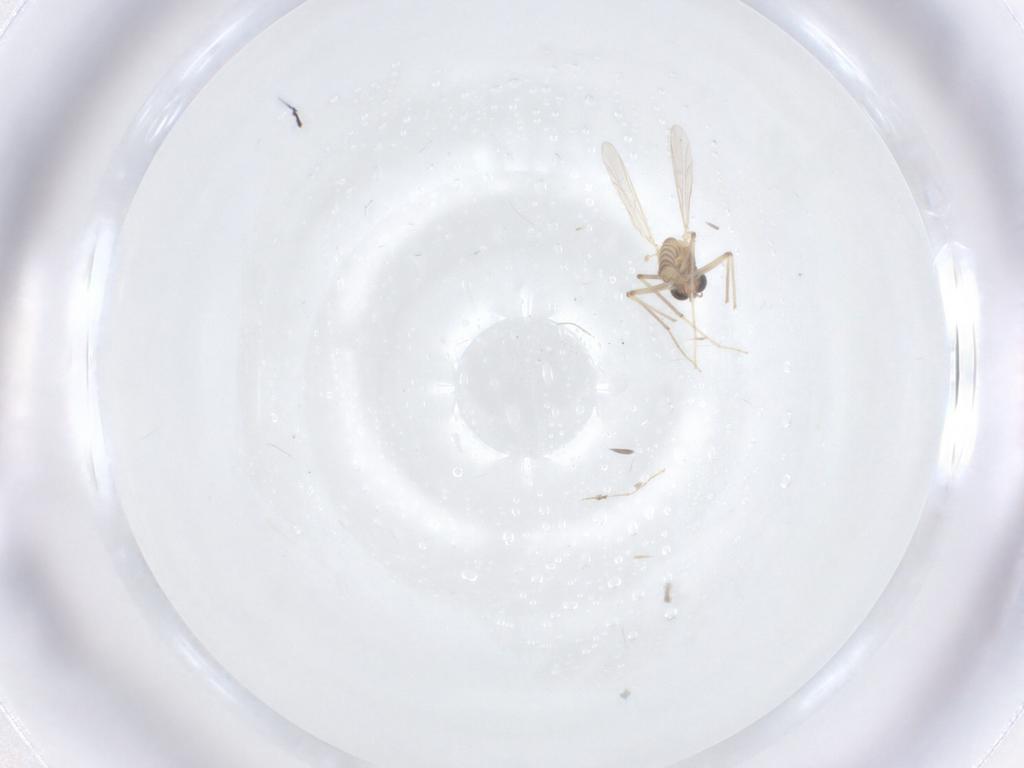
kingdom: Animalia
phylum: Arthropoda
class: Insecta
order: Diptera
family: Chironomidae
